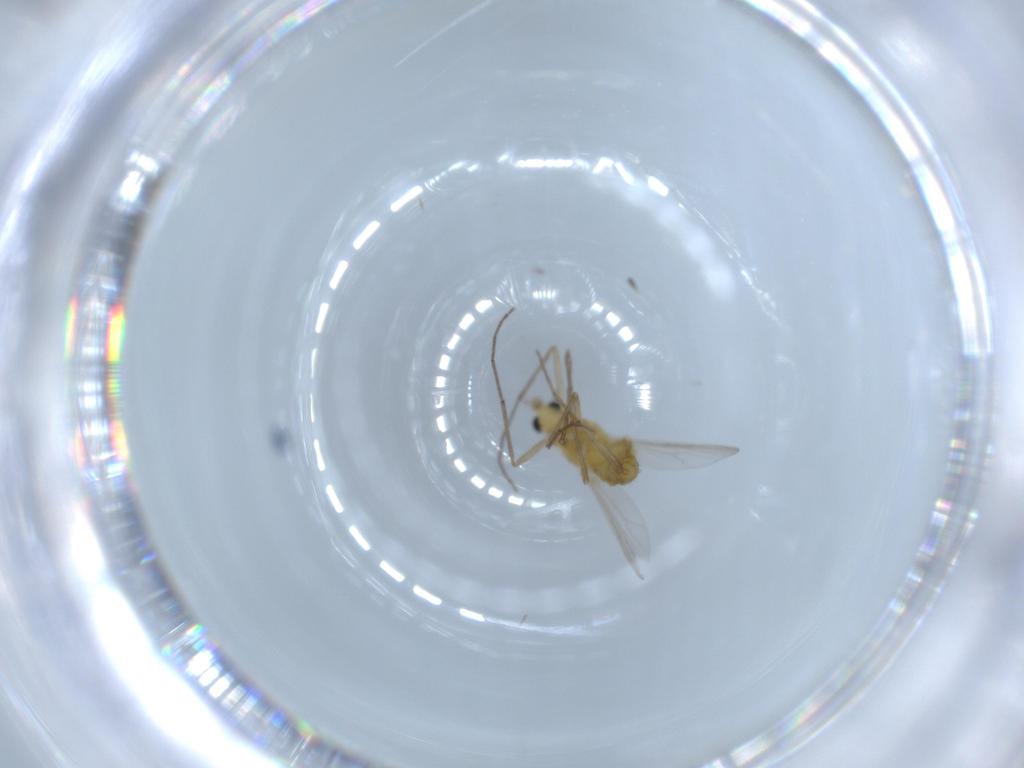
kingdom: Animalia
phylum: Arthropoda
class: Insecta
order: Diptera
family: Chironomidae
